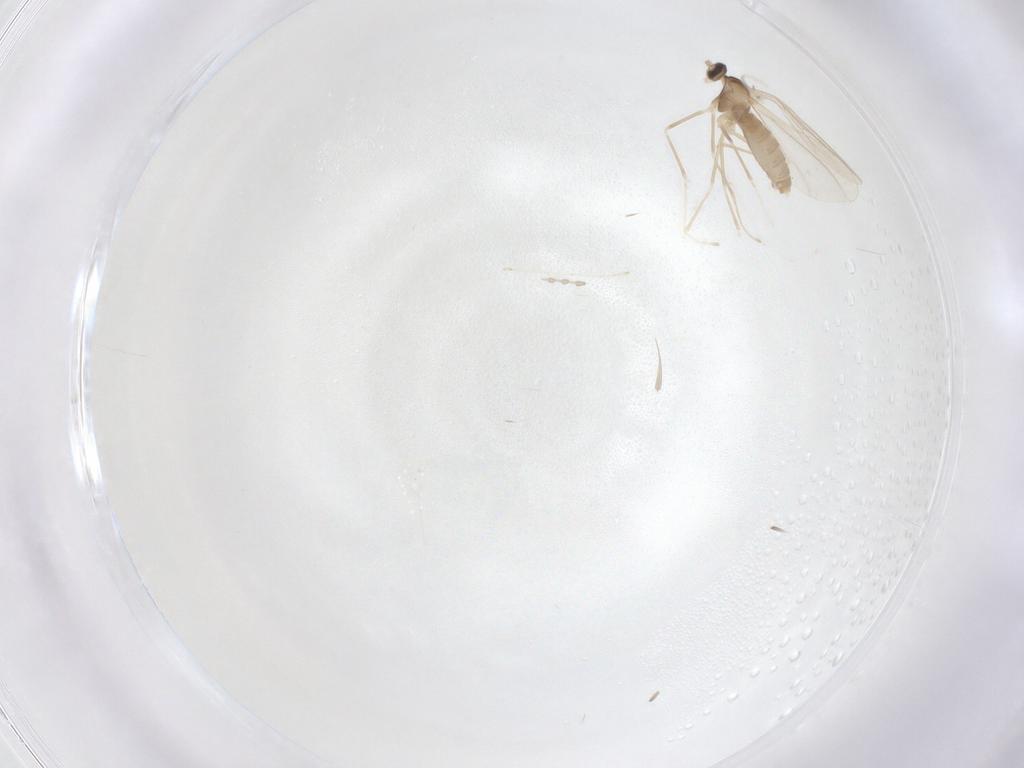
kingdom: Animalia
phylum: Arthropoda
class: Insecta
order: Diptera
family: Cecidomyiidae
